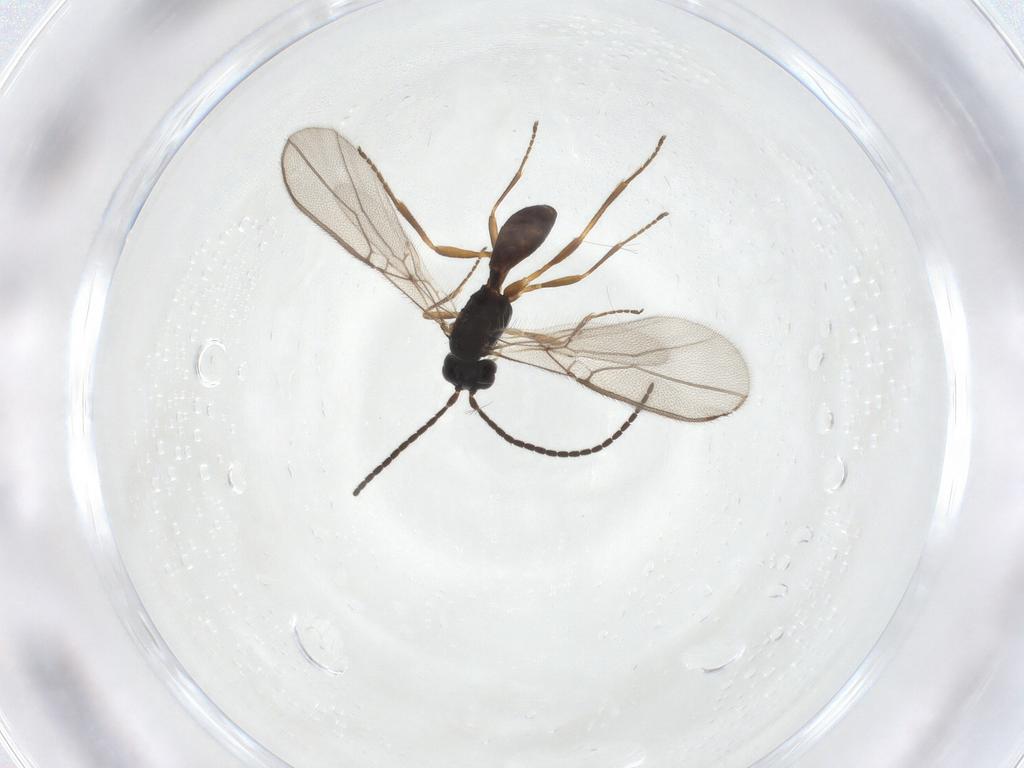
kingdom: Animalia
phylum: Arthropoda
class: Insecta
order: Hymenoptera
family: Braconidae
